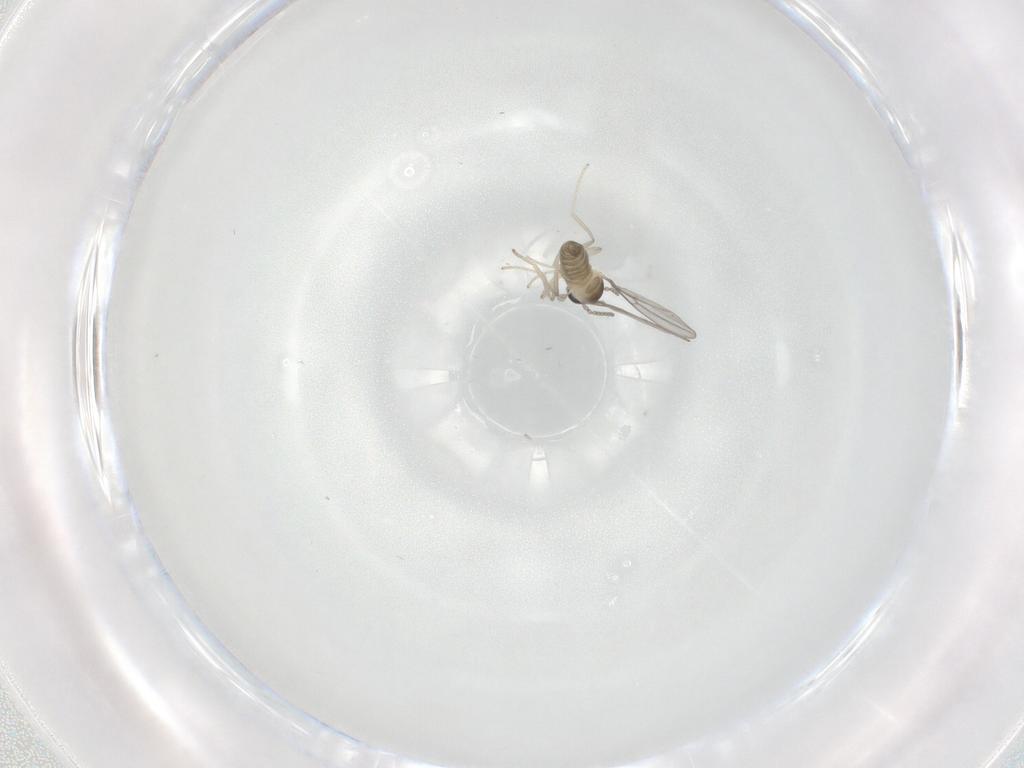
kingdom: Animalia
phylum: Arthropoda
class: Insecta
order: Diptera
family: Cecidomyiidae
